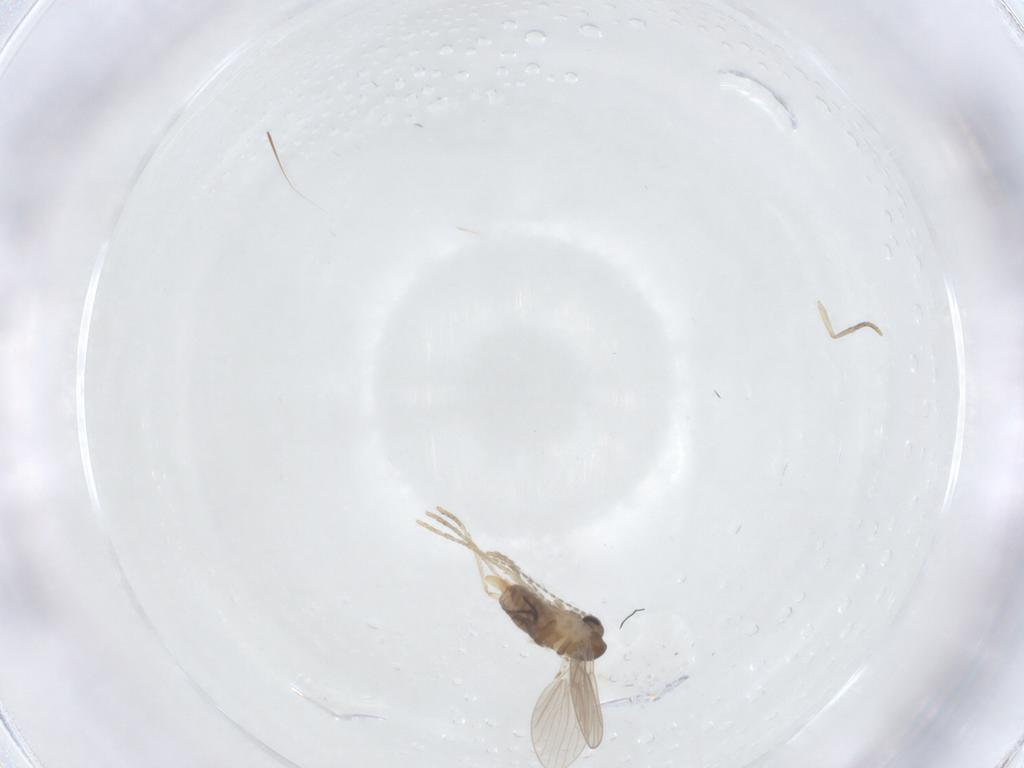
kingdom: Animalia
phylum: Arthropoda
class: Insecta
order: Diptera
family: Psychodidae
